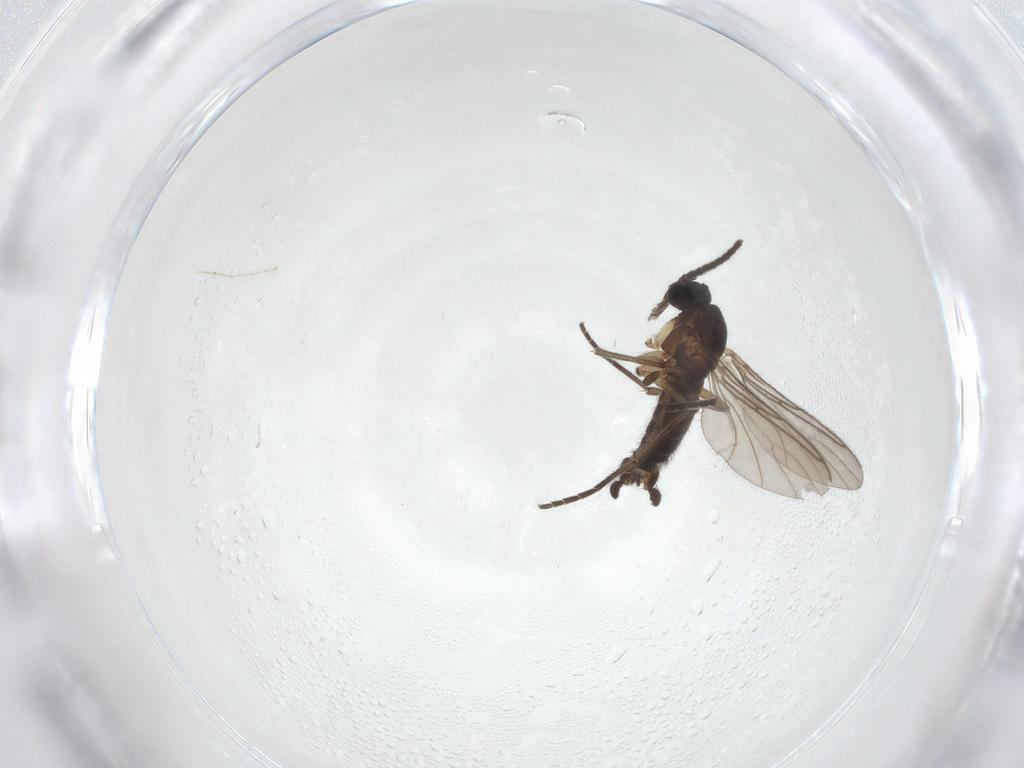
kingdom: Animalia
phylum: Arthropoda
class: Insecta
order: Diptera
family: Sciaridae
